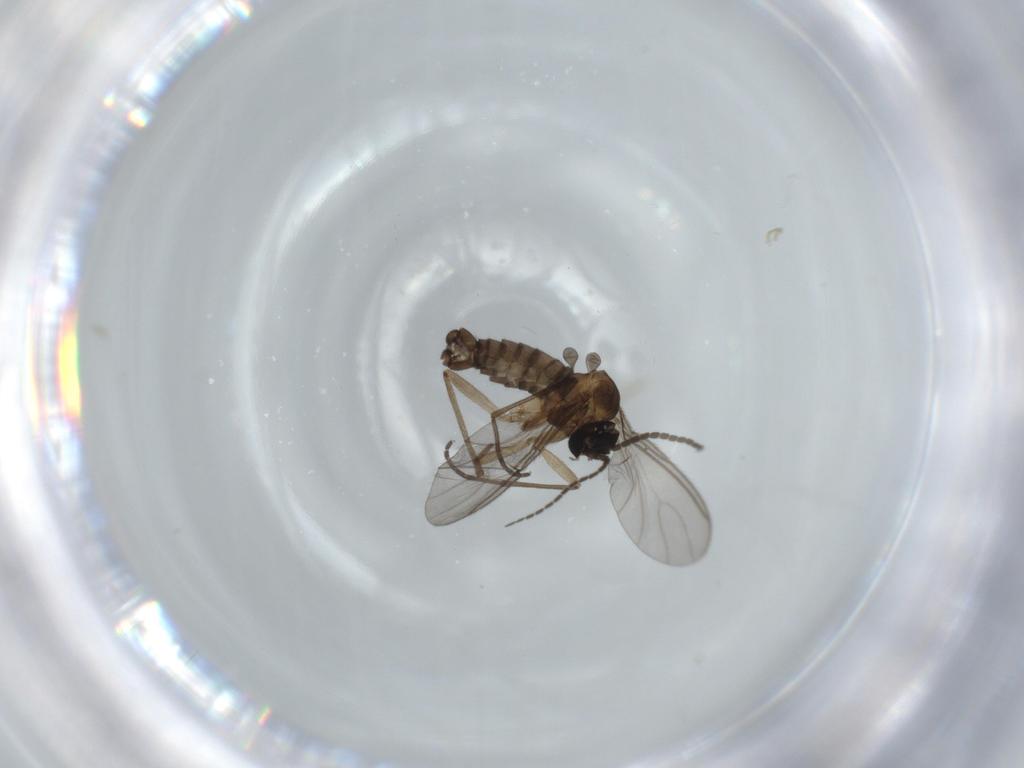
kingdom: Animalia
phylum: Arthropoda
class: Insecta
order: Diptera
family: Sciaridae
